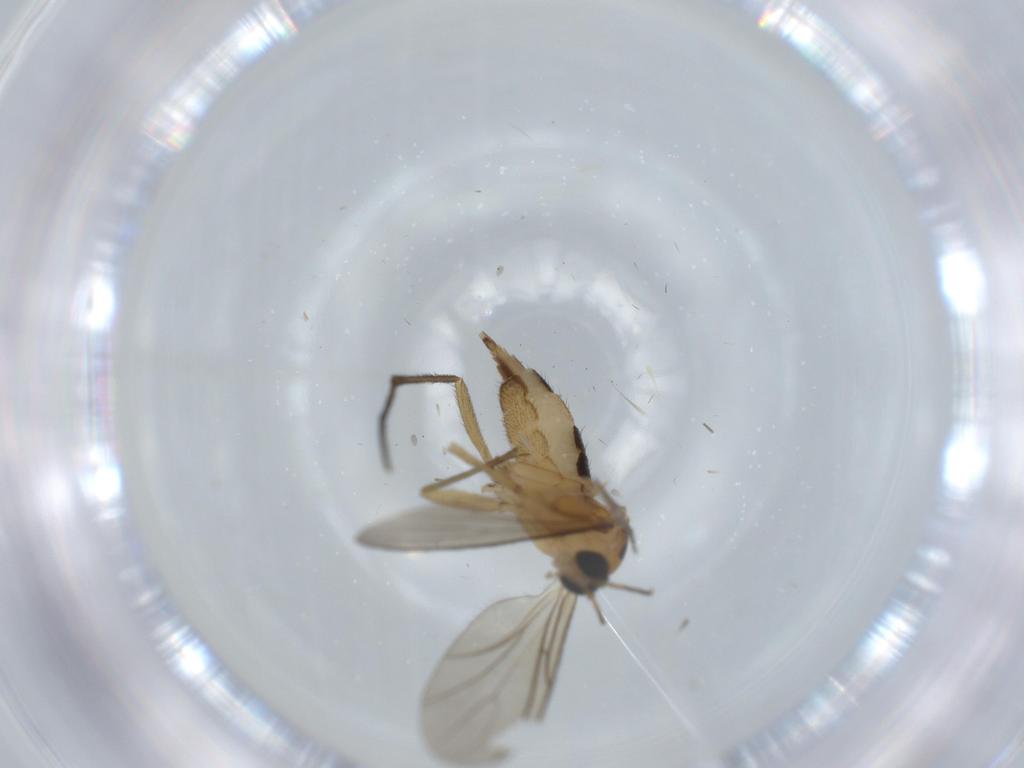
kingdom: Animalia
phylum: Arthropoda
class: Insecta
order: Diptera
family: Sciaridae
